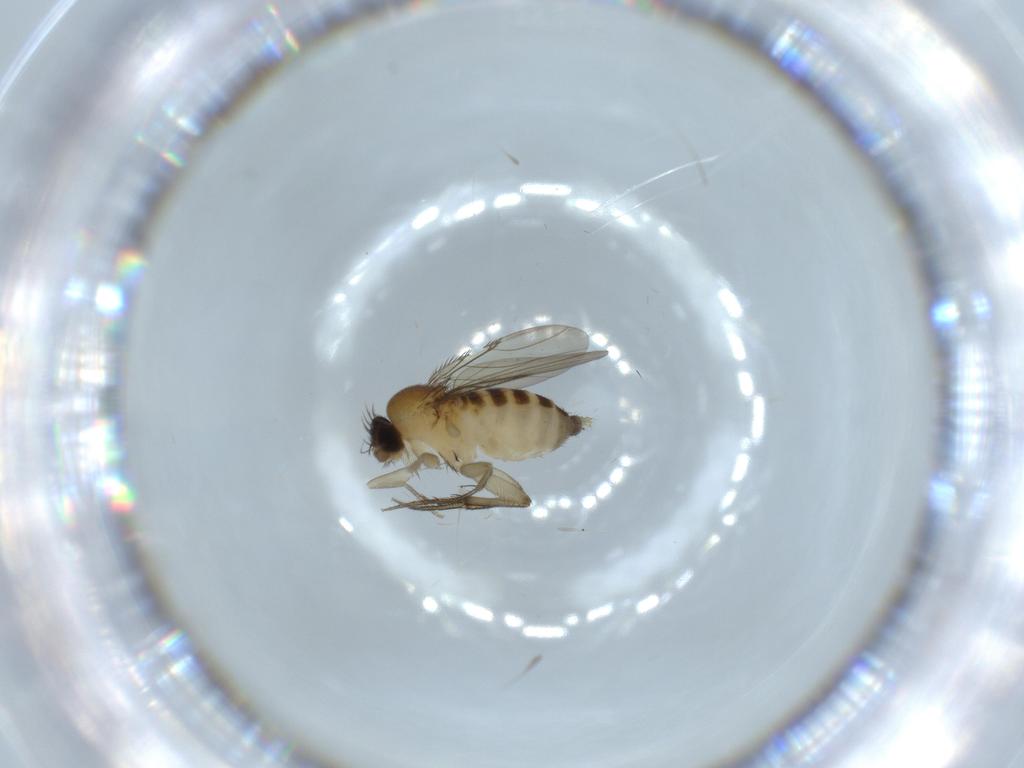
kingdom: Animalia
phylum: Arthropoda
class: Insecta
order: Diptera
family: Phoridae
